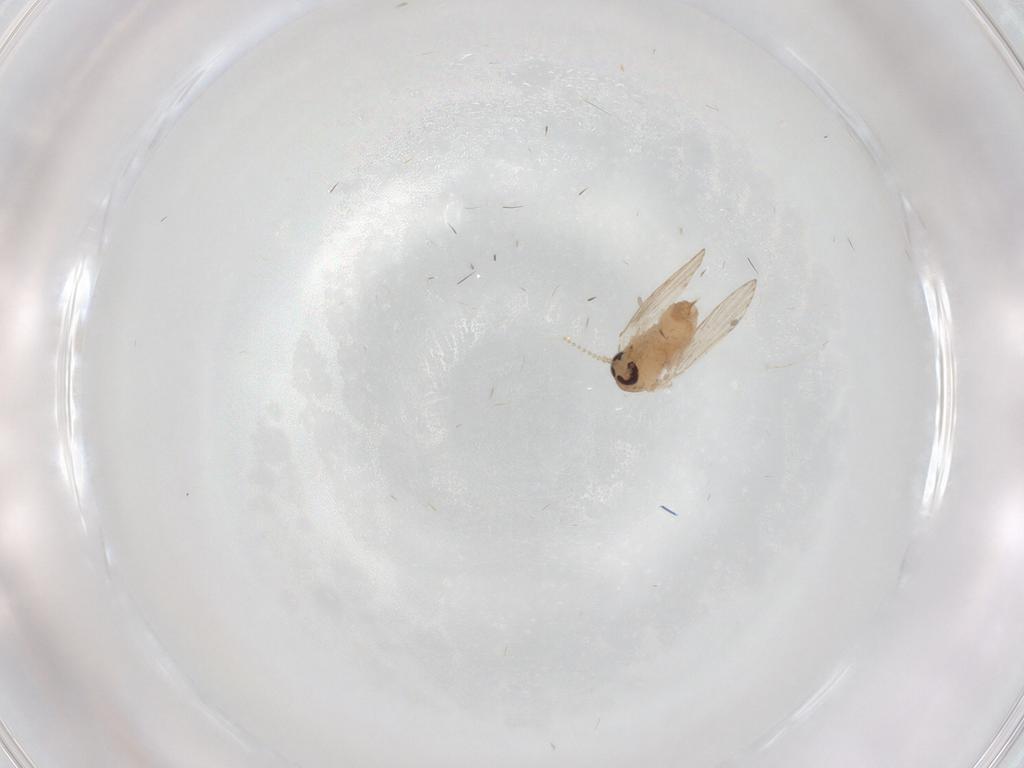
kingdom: Animalia
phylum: Arthropoda
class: Insecta
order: Diptera
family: Psychodidae
